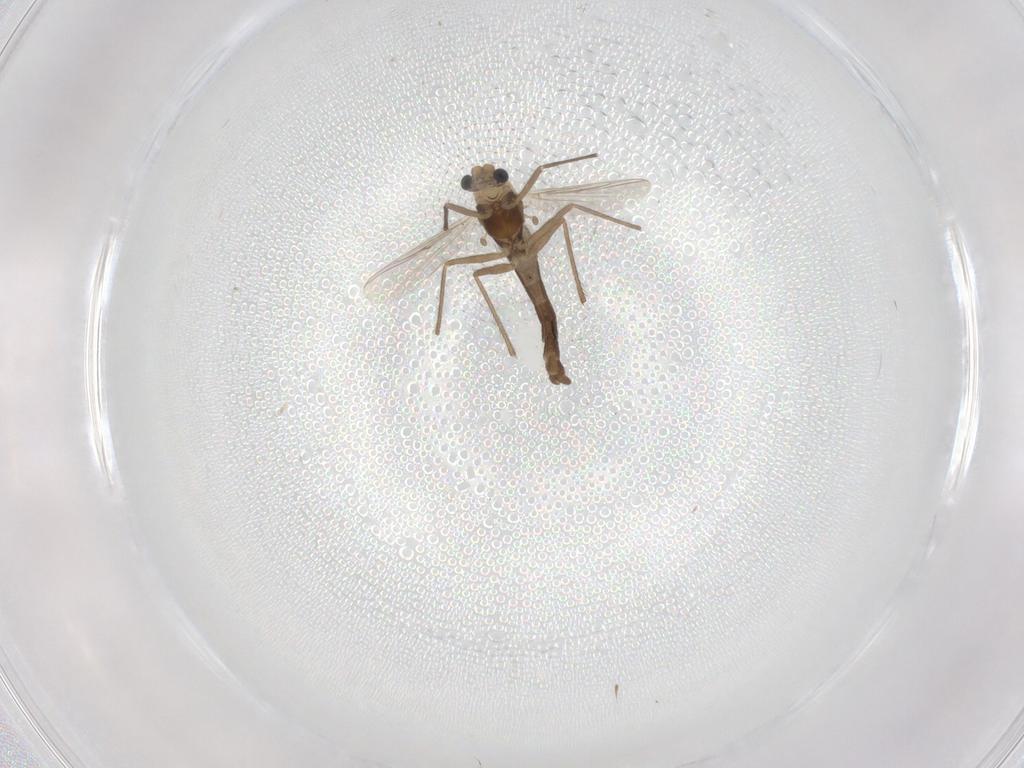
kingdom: Animalia
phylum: Arthropoda
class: Insecta
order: Diptera
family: Chironomidae
